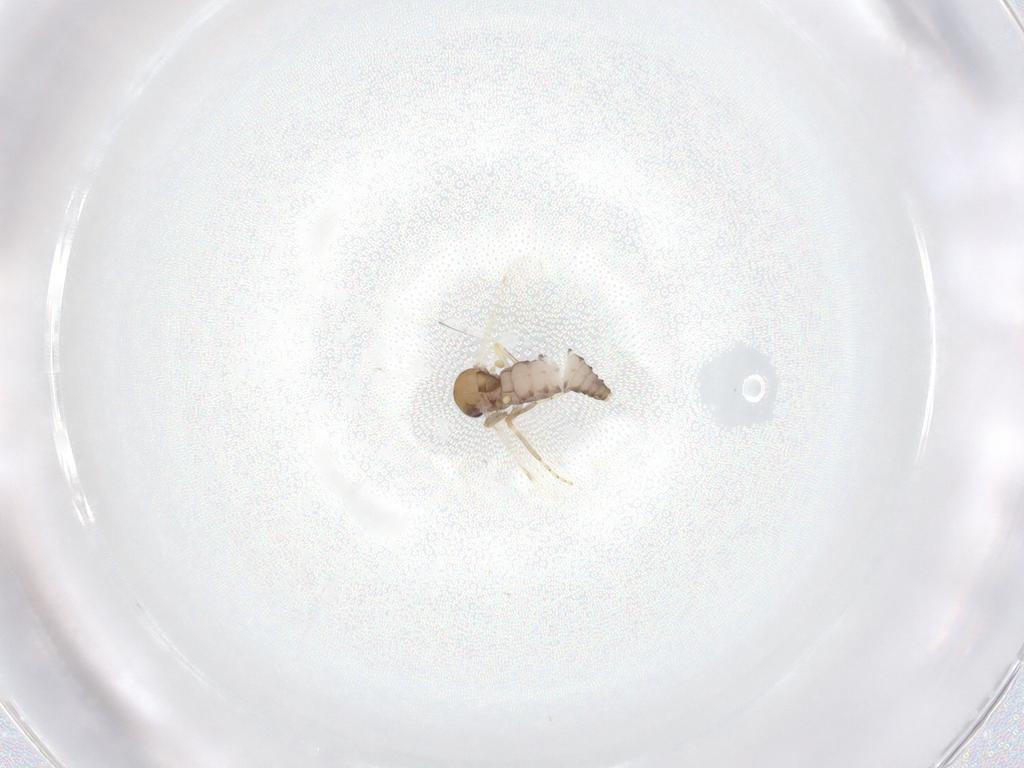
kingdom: Animalia
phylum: Arthropoda
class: Insecta
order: Diptera
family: Ceratopogonidae
